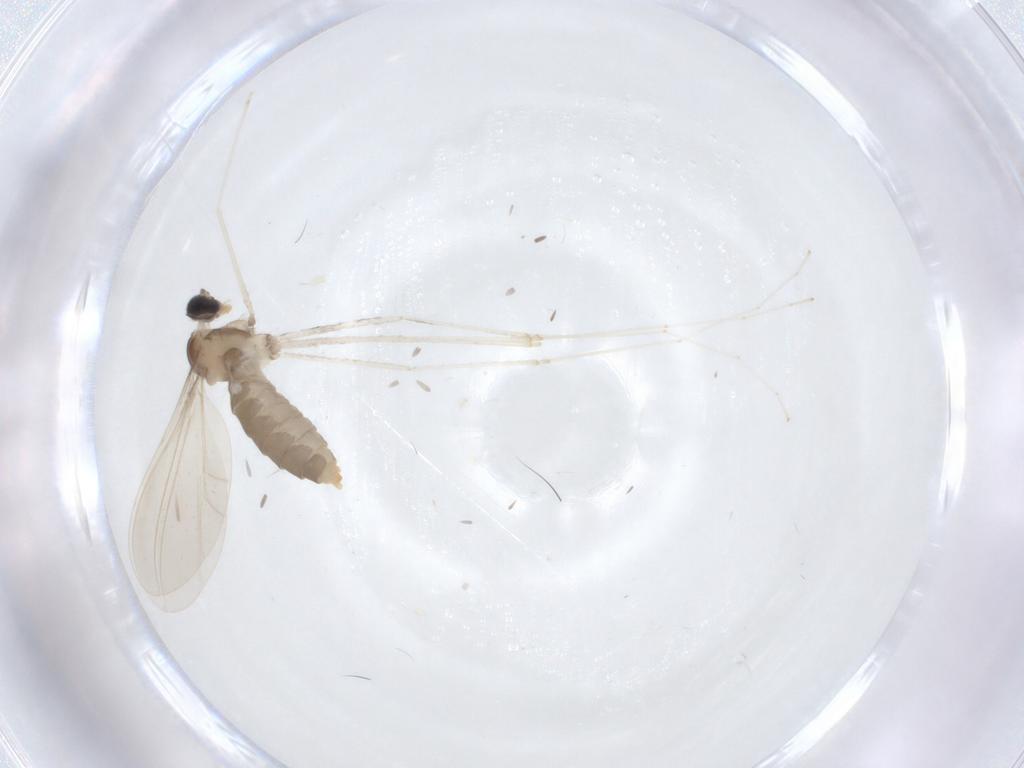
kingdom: Animalia
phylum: Arthropoda
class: Insecta
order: Diptera
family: Cecidomyiidae
